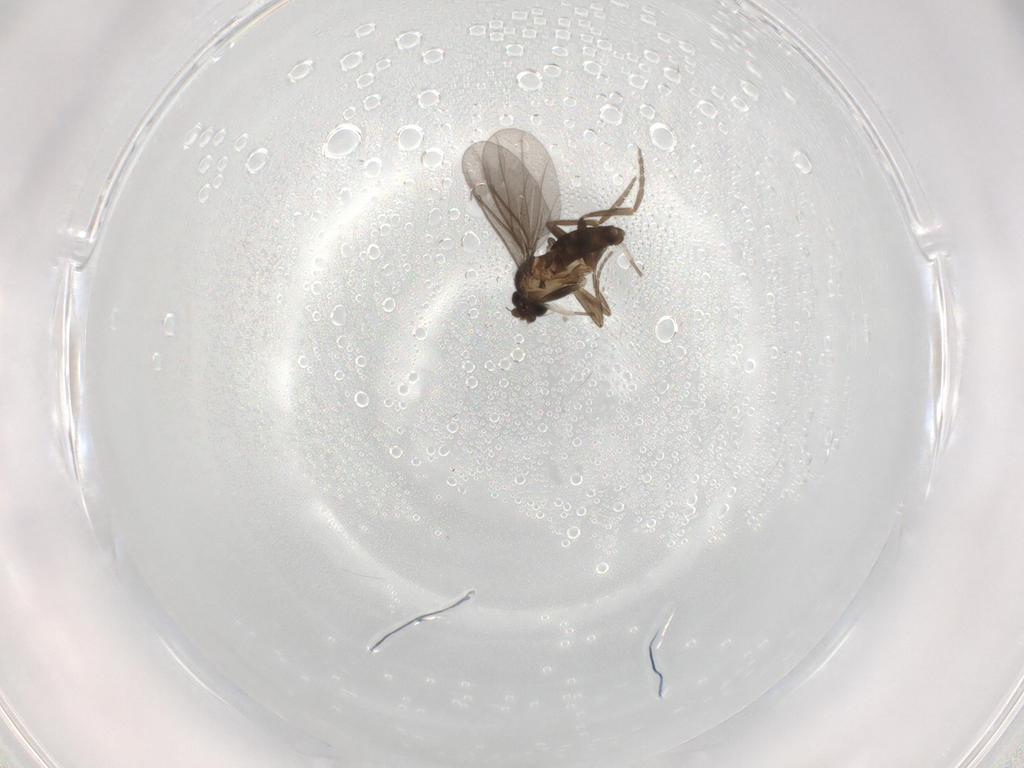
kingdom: Animalia
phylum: Arthropoda
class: Insecta
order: Diptera
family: Phoridae
